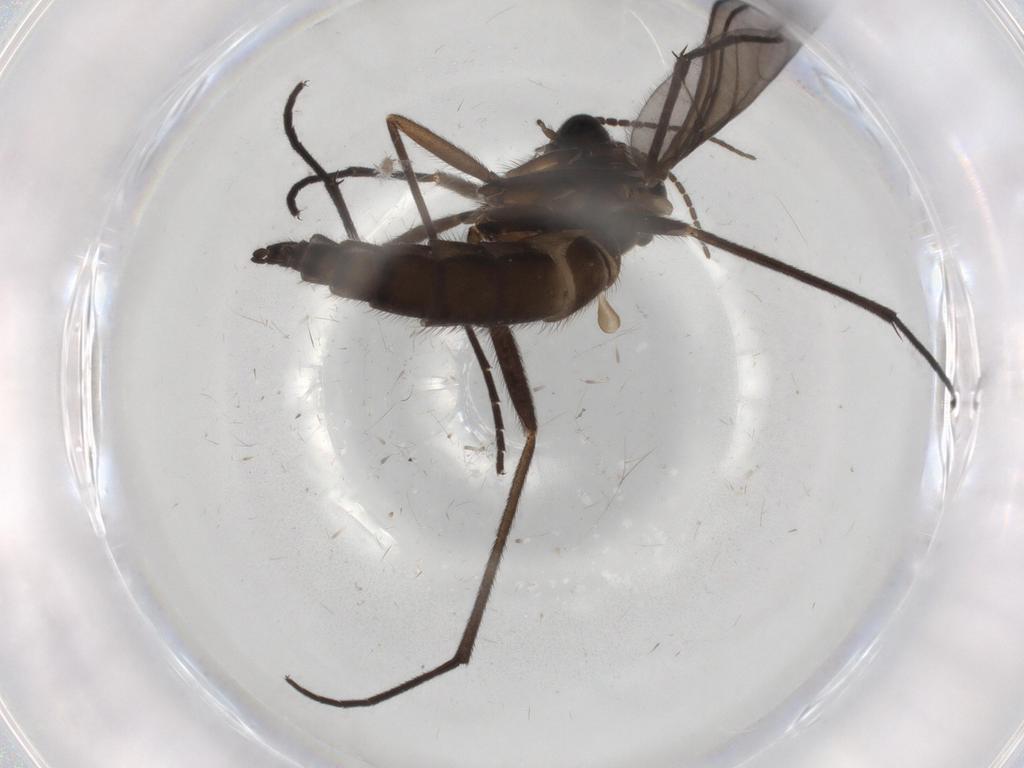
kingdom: Animalia
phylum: Arthropoda
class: Insecta
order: Diptera
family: Sciaridae
